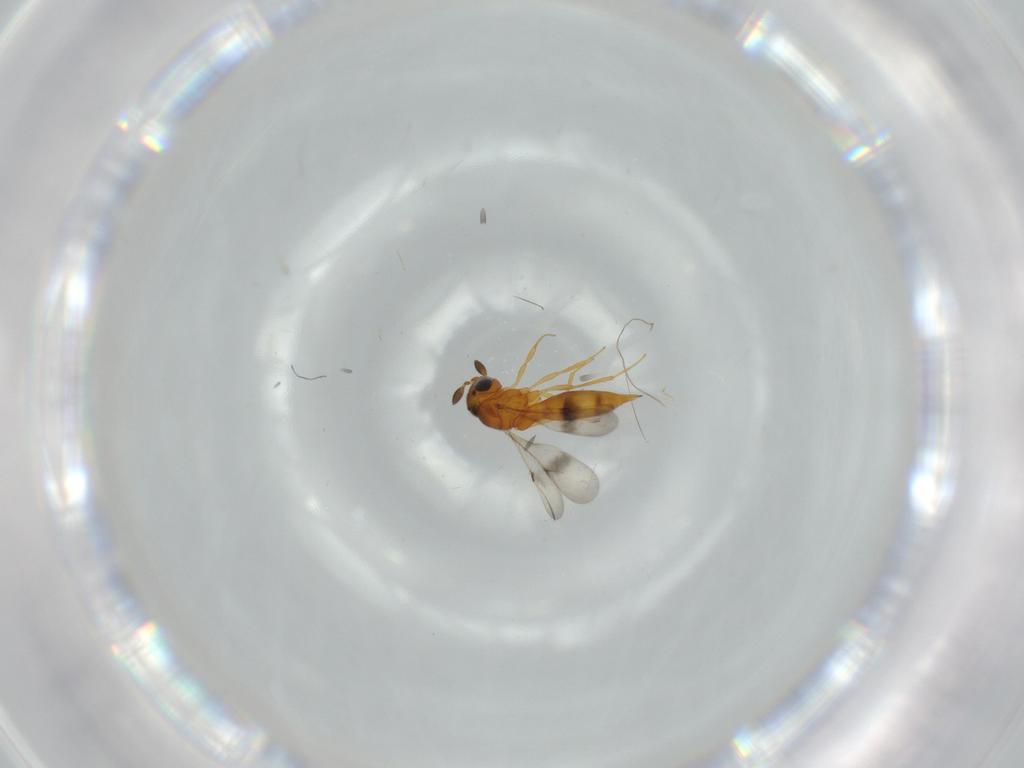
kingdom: Animalia
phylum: Arthropoda
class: Insecta
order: Hymenoptera
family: Scelionidae
